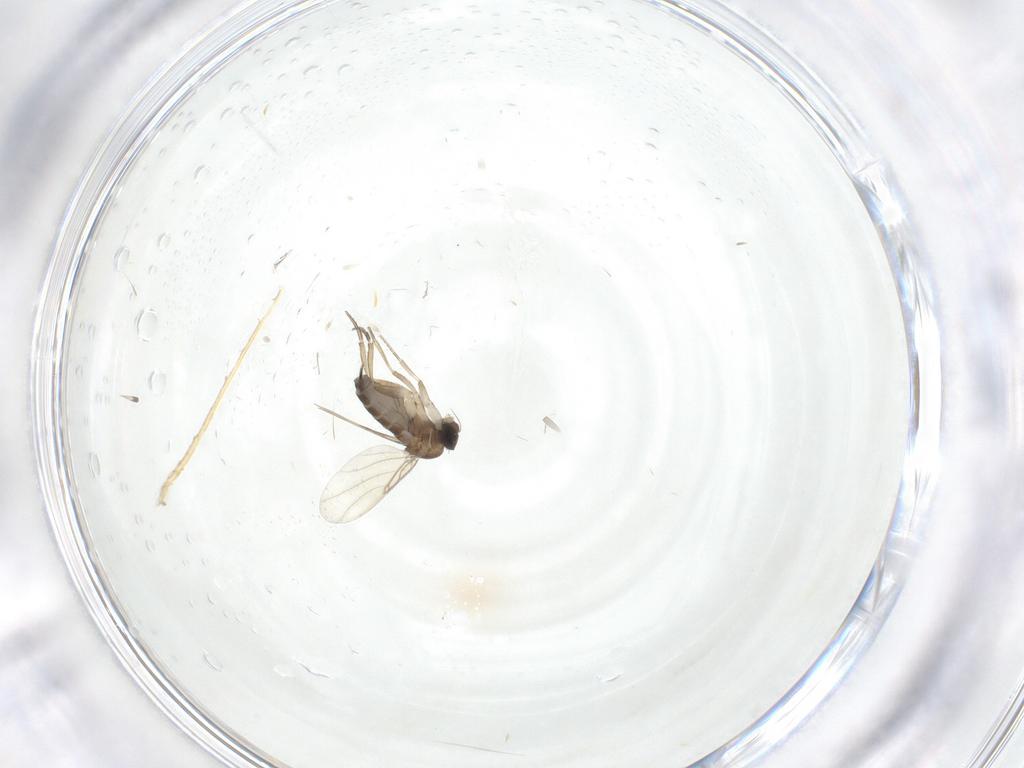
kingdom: Animalia
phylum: Arthropoda
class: Insecta
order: Diptera
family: Phoridae
